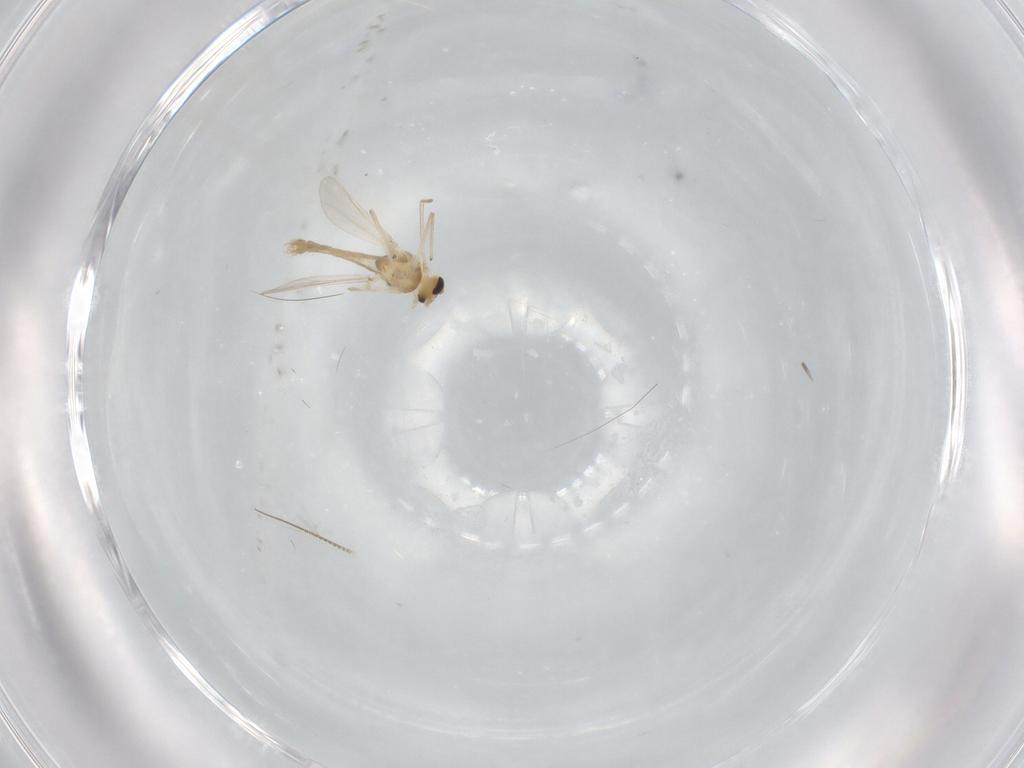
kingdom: Animalia
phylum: Arthropoda
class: Insecta
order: Diptera
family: Chironomidae
